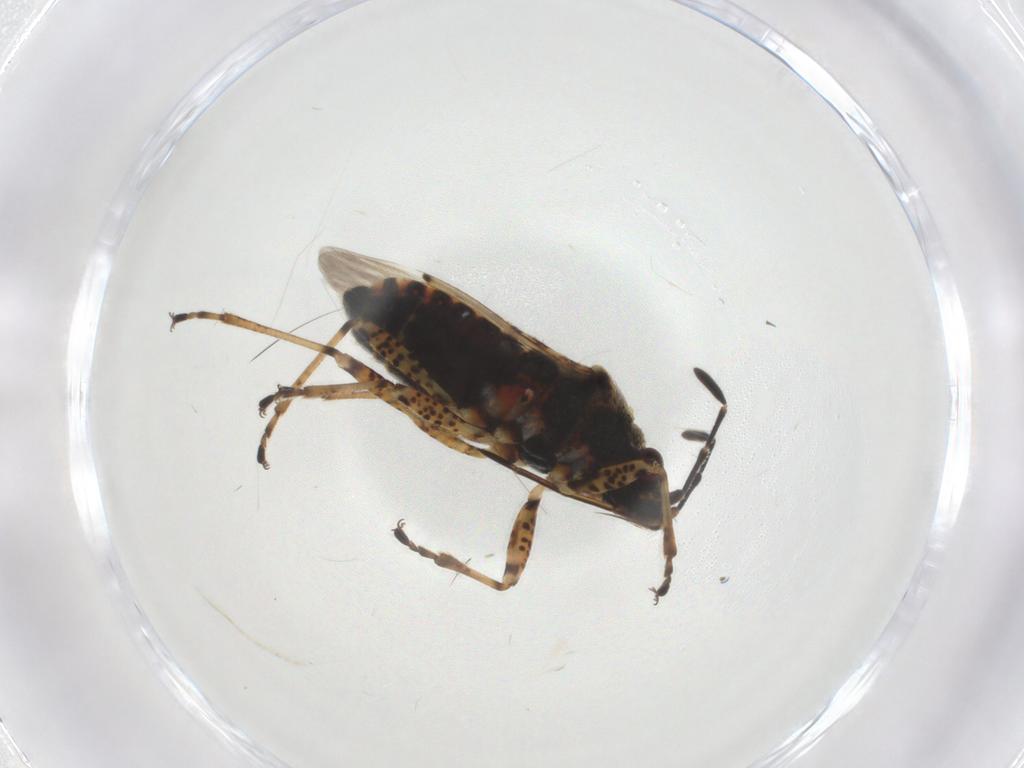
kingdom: Animalia
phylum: Arthropoda
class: Insecta
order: Hemiptera
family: Lygaeidae
